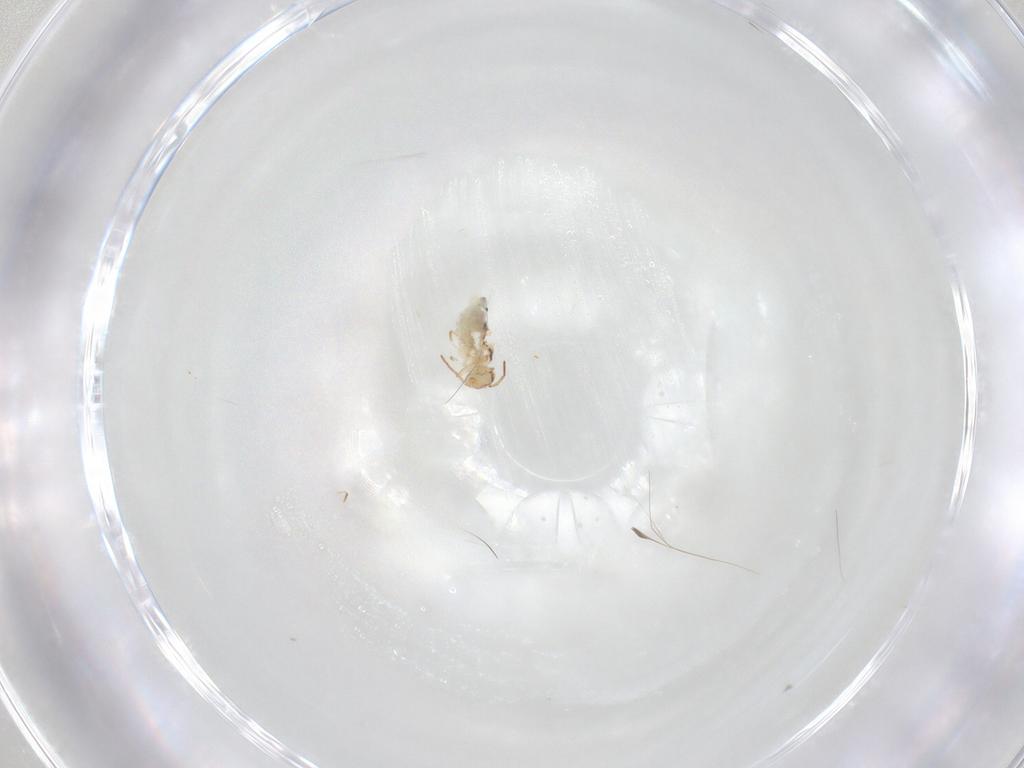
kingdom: Animalia
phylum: Arthropoda
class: Collembola
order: Symphypleona
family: Bourletiellidae
